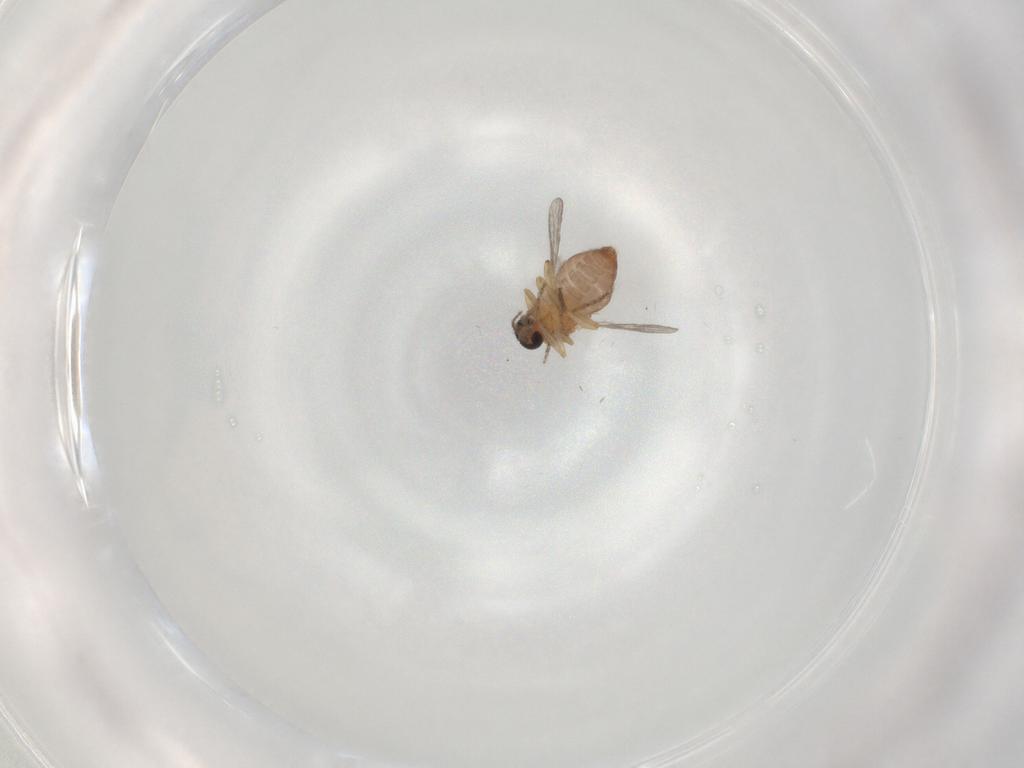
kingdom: Animalia
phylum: Arthropoda
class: Insecta
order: Diptera
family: Ceratopogonidae
